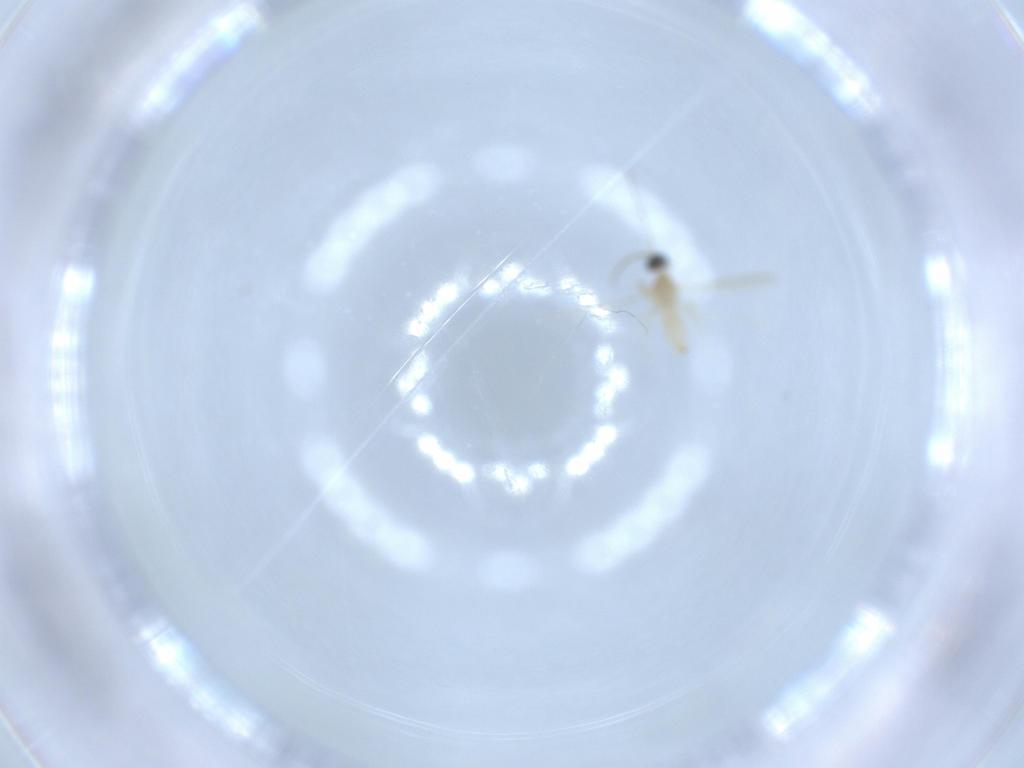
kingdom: Animalia
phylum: Arthropoda
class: Insecta
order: Diptera
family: Cecidomyiidae
